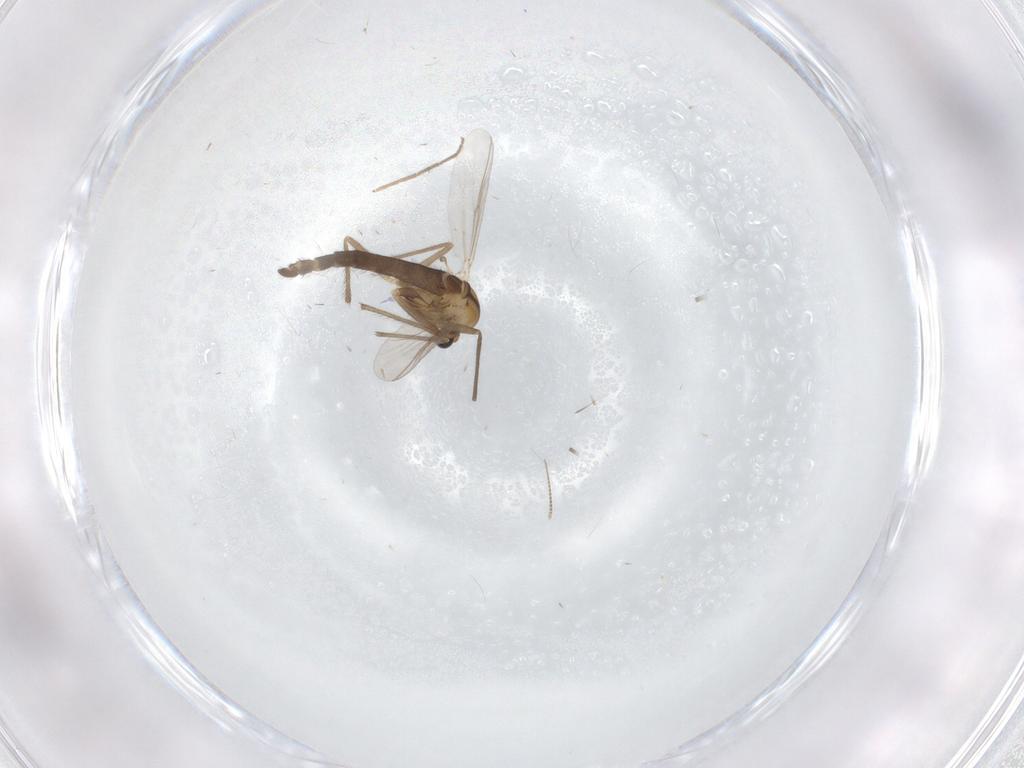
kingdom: Animalia
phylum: Arthropoda
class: Insecta
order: Diptera
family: Chironomidae
